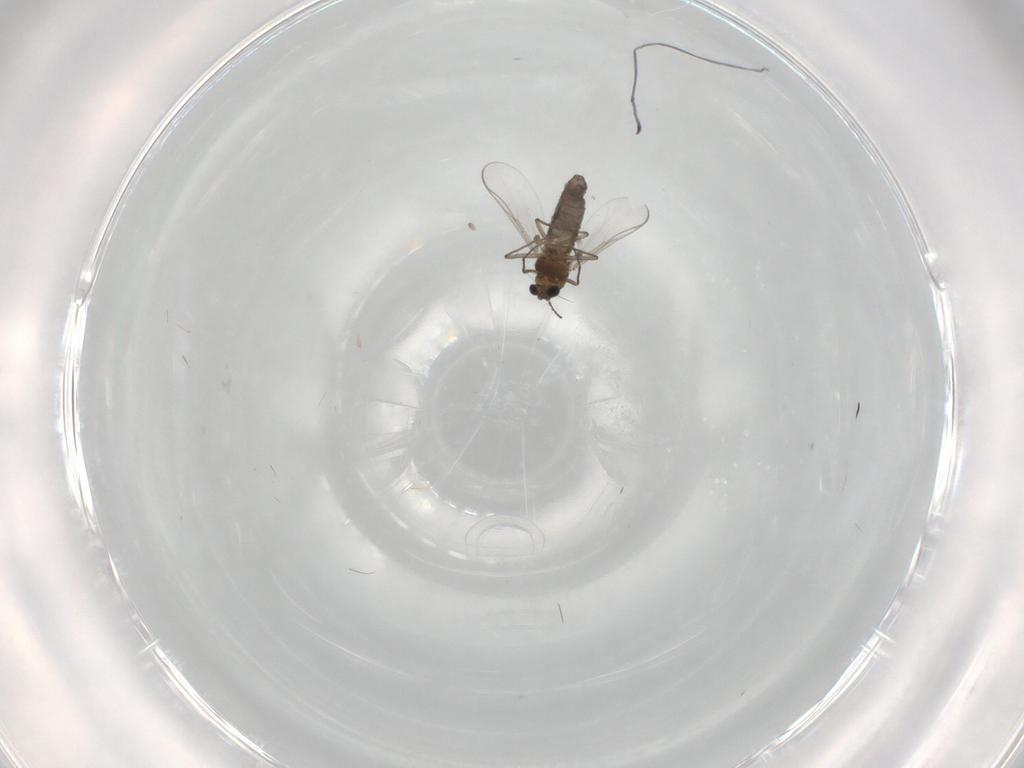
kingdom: Animalia
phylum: Arthropoda
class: Insecta
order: Diptera
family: Chironomidae
